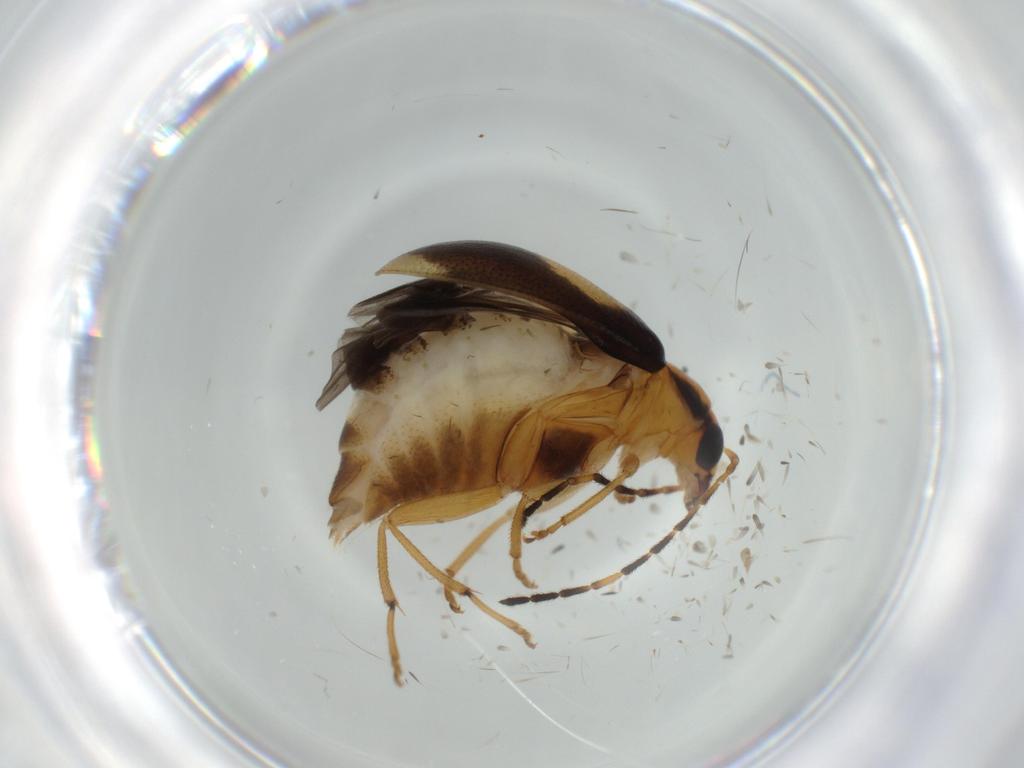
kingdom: Animalia
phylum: Arthropoda
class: Insecta
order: Coleoptera
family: Chrysomelidae
